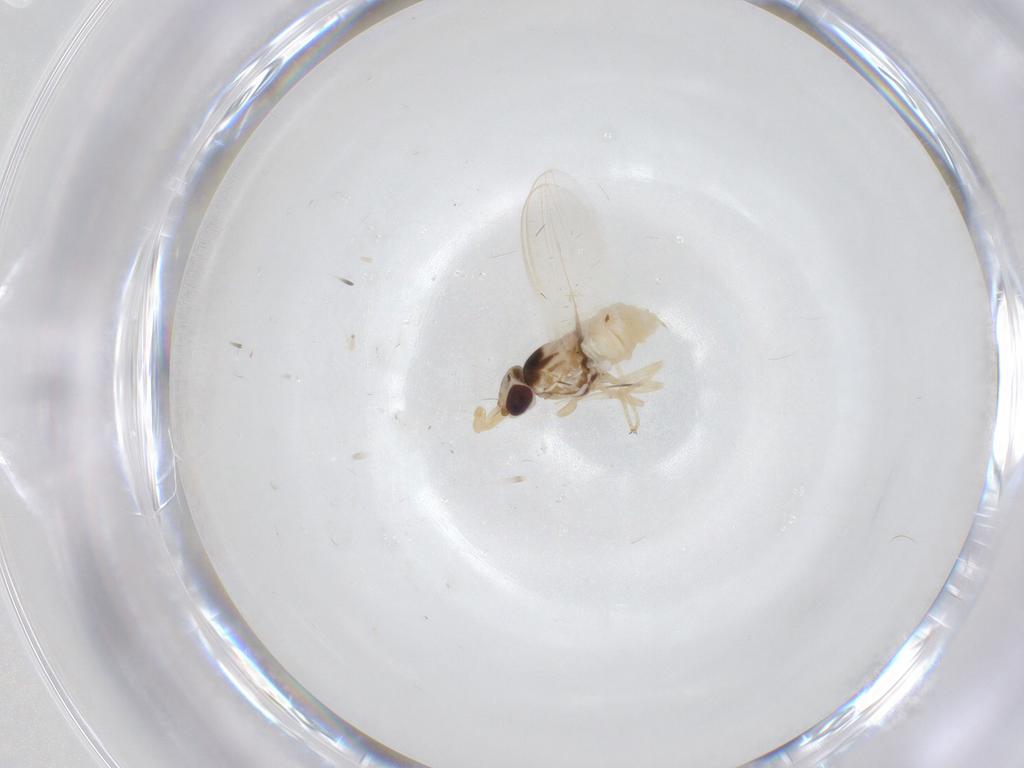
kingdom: Animalia
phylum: Arthropoda
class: Insecta
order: Diptera
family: Chloropidae
